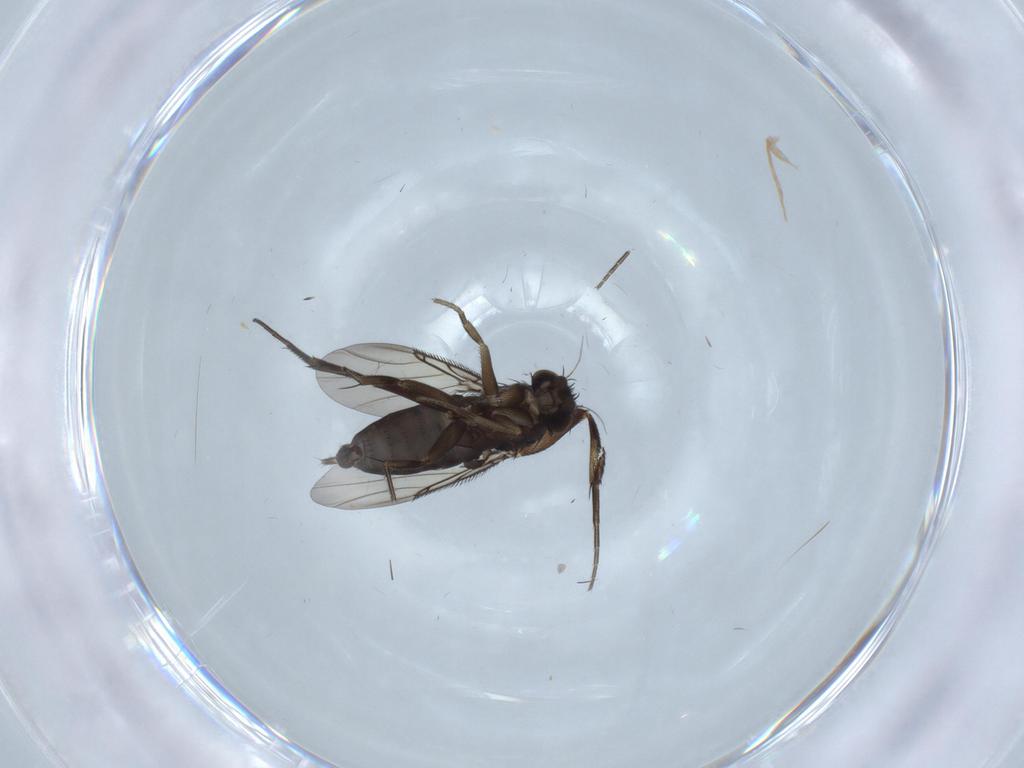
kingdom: Animalia
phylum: Arthropoda
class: Insecta
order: Diptera
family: Phoridae
